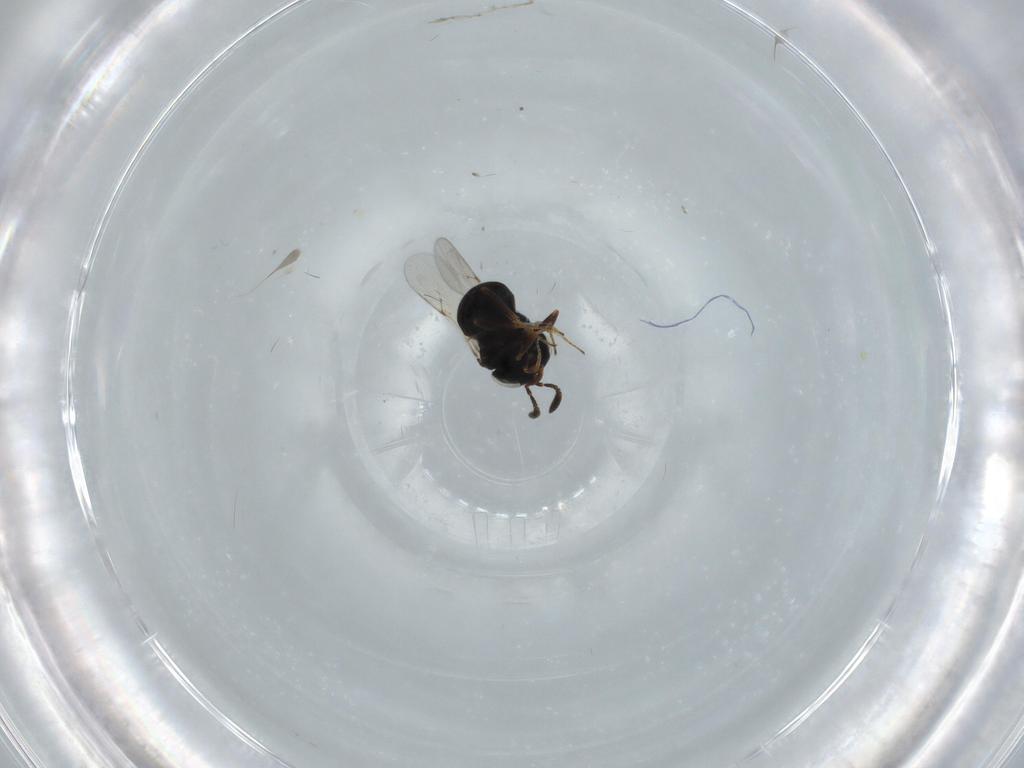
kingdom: Animalia
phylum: Arthropoda
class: Insecta
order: Hymenoptera
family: Scelionidae
